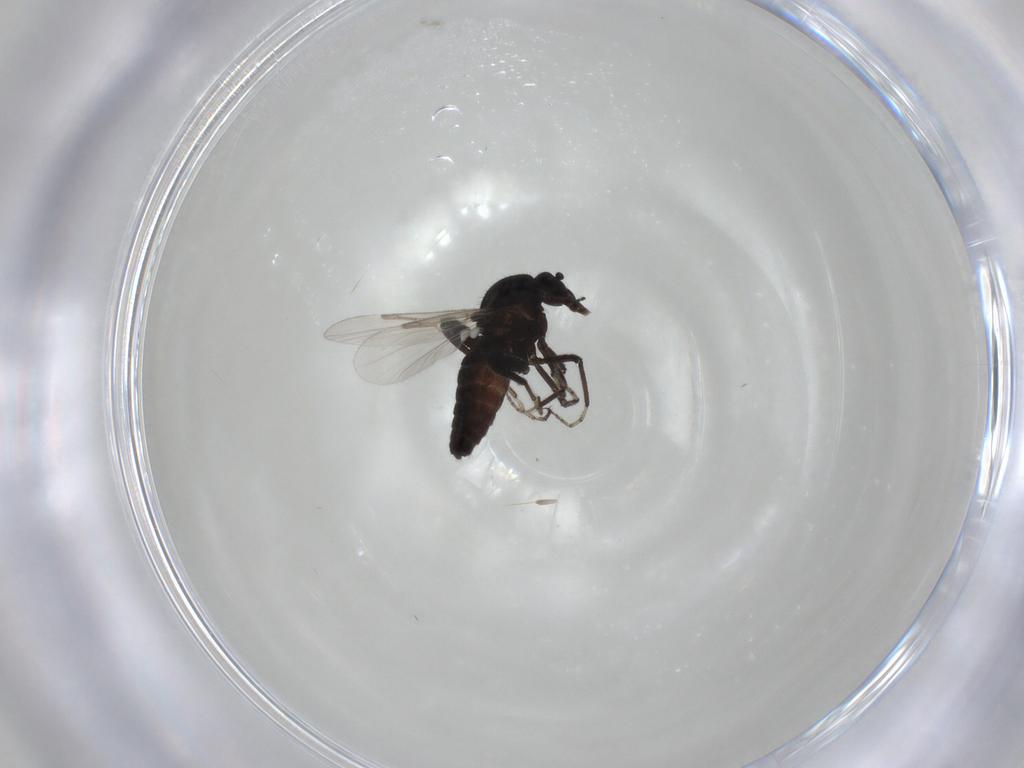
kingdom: Animalia
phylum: Arthropoda
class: Insecta
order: Diptera
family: Ceratopogonidae
